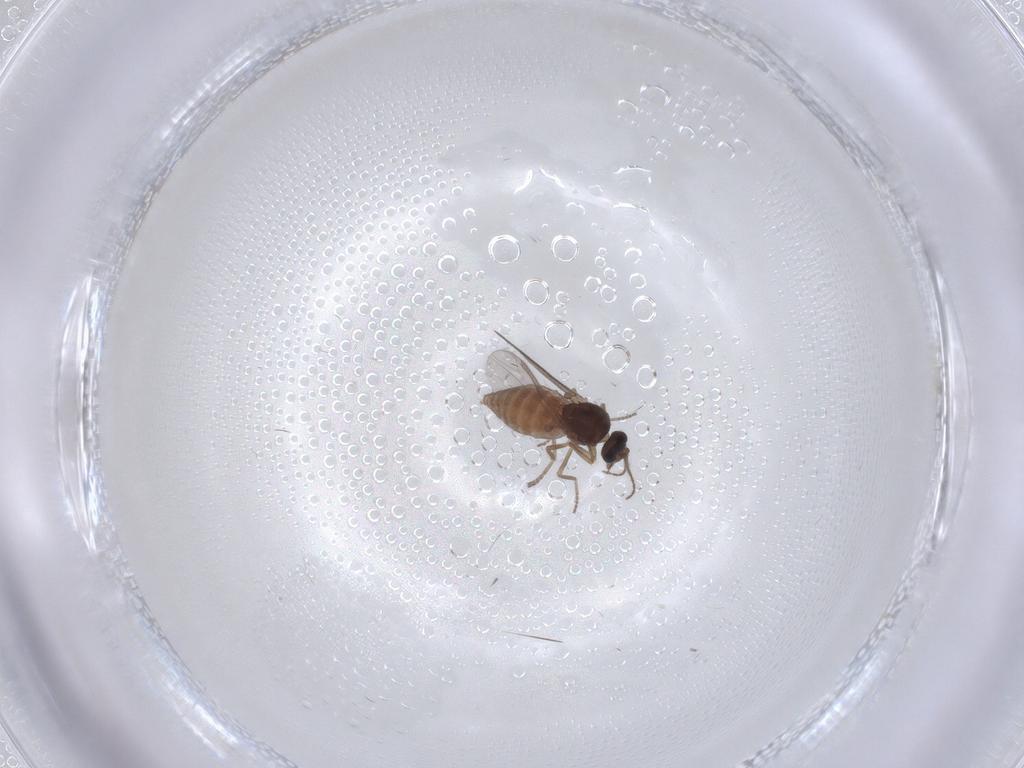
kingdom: Animalia
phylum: Arthropoda
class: Insecta
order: Diptera
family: Ceratopogonidae
